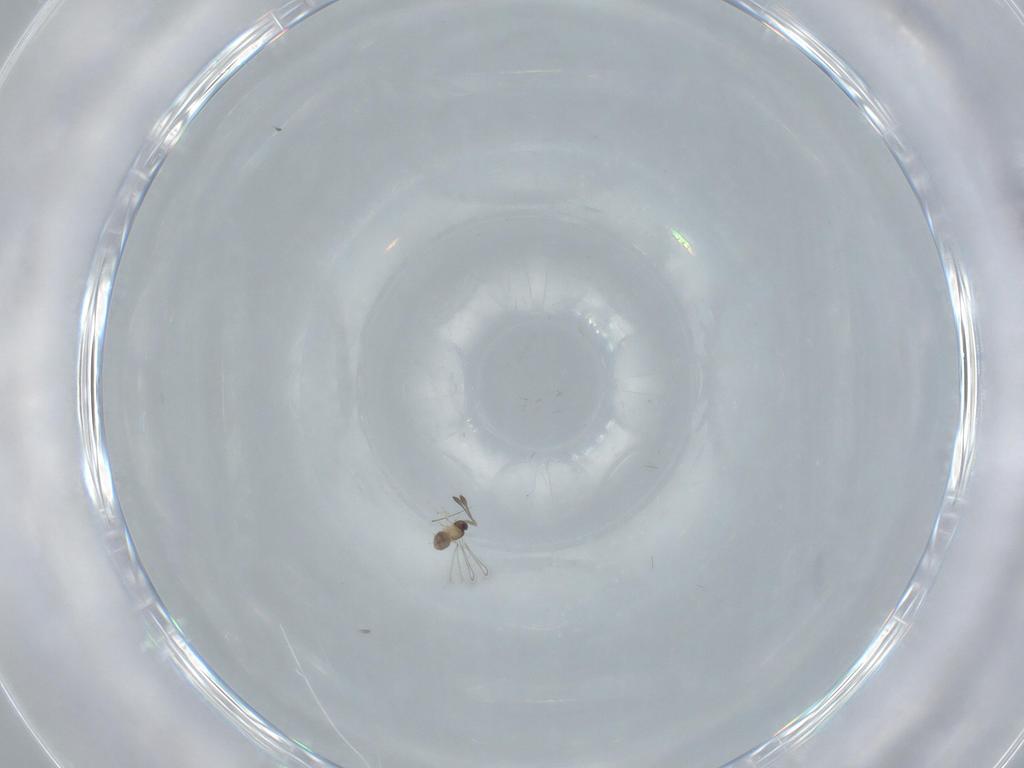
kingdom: Animalia
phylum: Arthropoda
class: Insecta
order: Hymenoptera
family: Mymaridae
